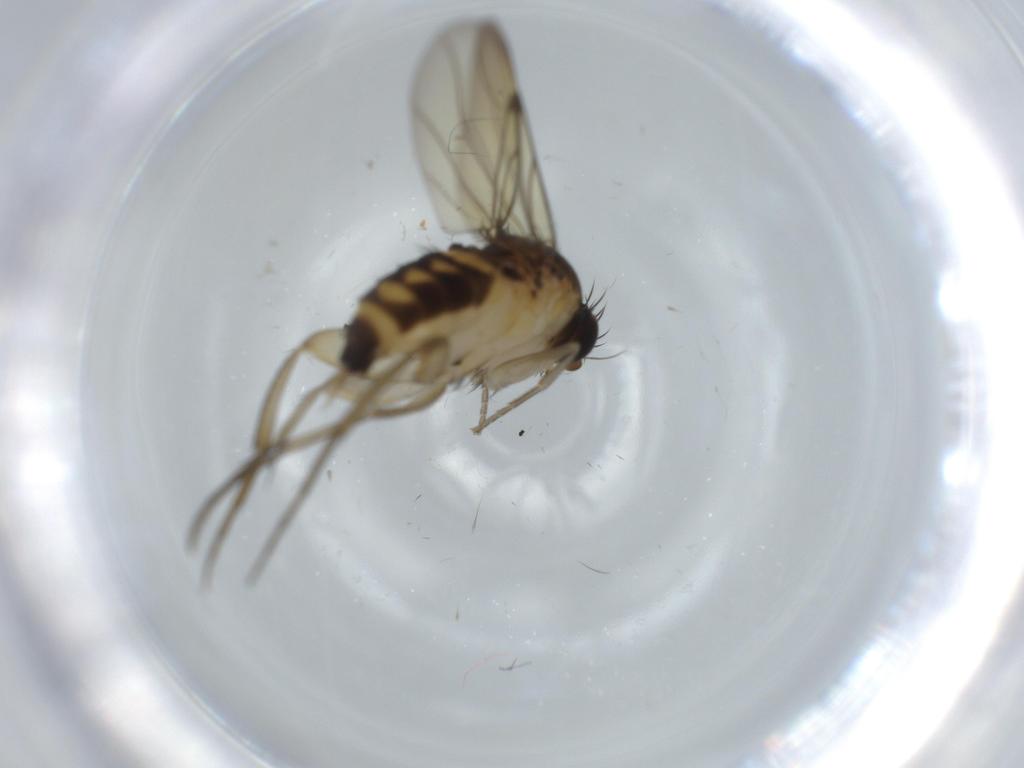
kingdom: Animalia
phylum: Arthropoda
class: Insecta
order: Diptera
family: Phoridae
